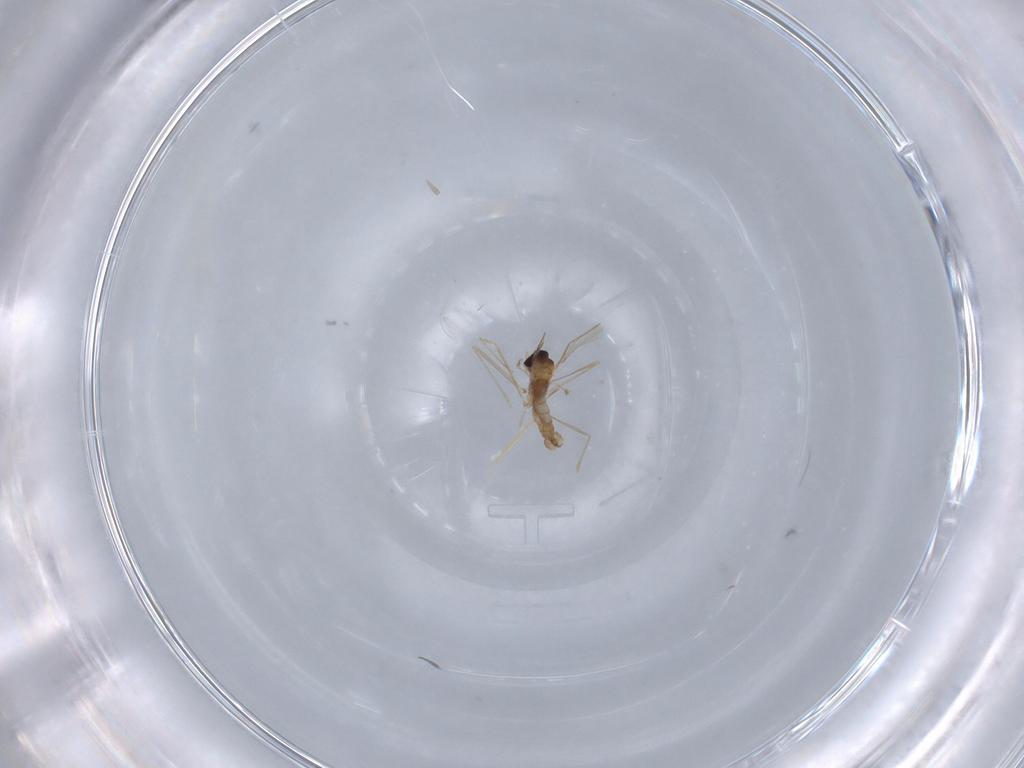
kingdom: Animalia
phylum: Arthropoda
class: Insecta
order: Diptera
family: Cecidomyiidae
